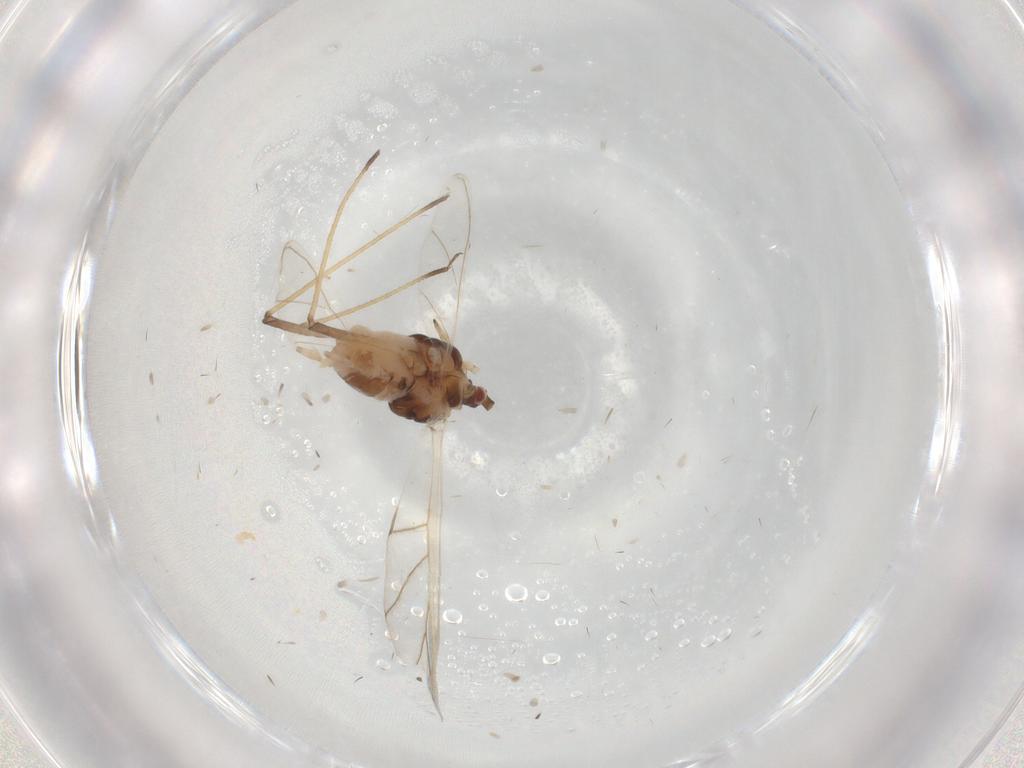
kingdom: Animalia
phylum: Arthropoda
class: Insecta
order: Hemiptera
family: Aphididae
